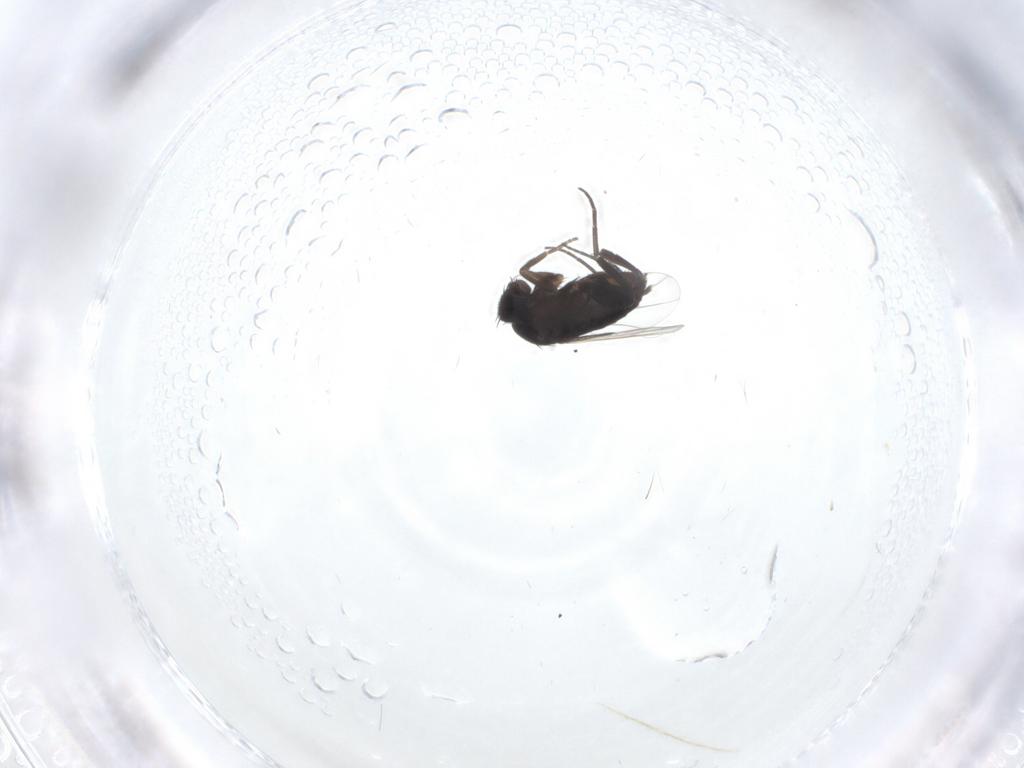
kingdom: Animalia
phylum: Arthropoda
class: Insecta
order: Diptera
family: Phoridae
